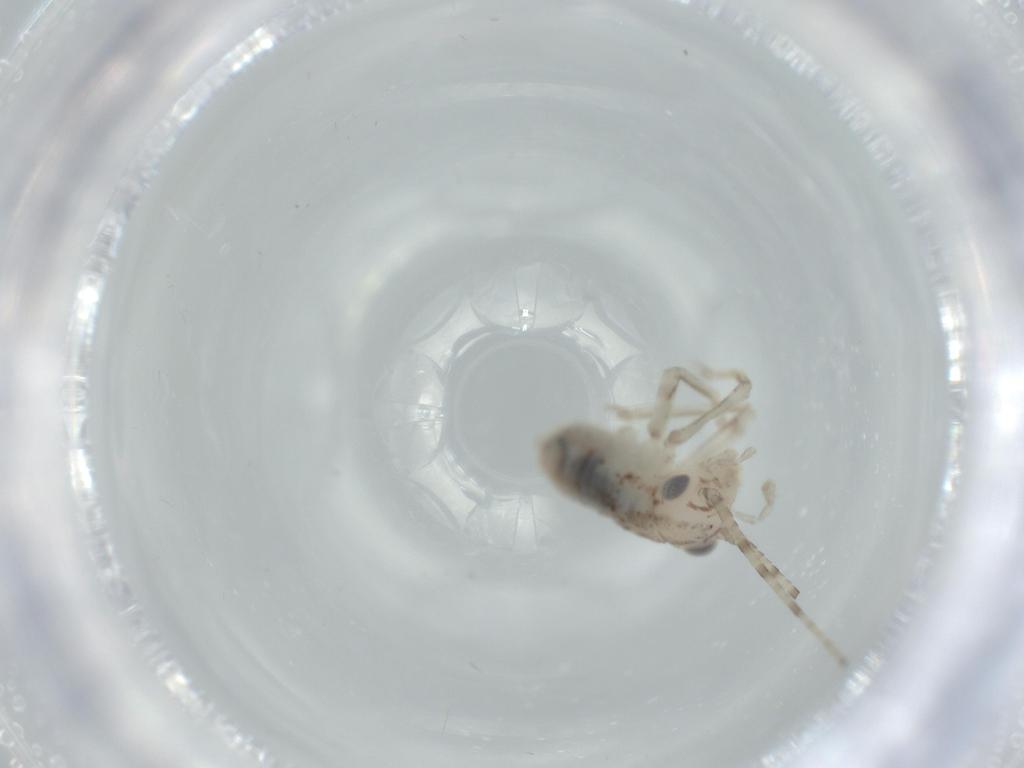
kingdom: Animalia
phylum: Arthropoda
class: Insecta
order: Orthoptera
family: Trigonidiidae
